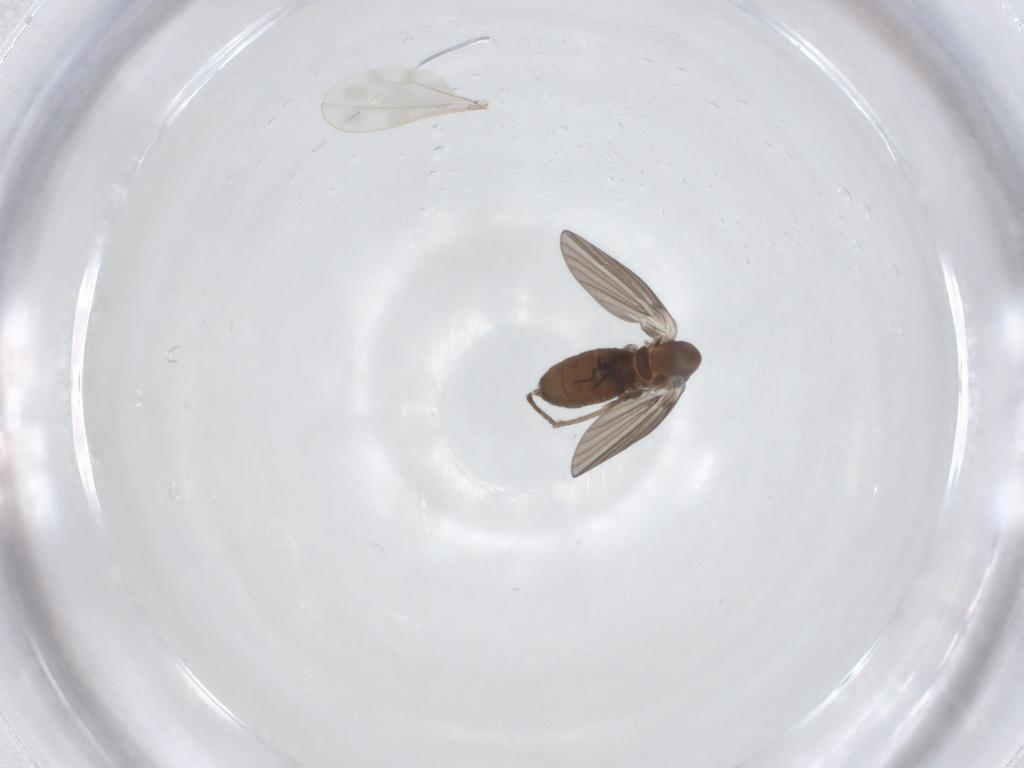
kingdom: Animalia
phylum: Arthropoda
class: Insecta
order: Diptera
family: Psychodidae
